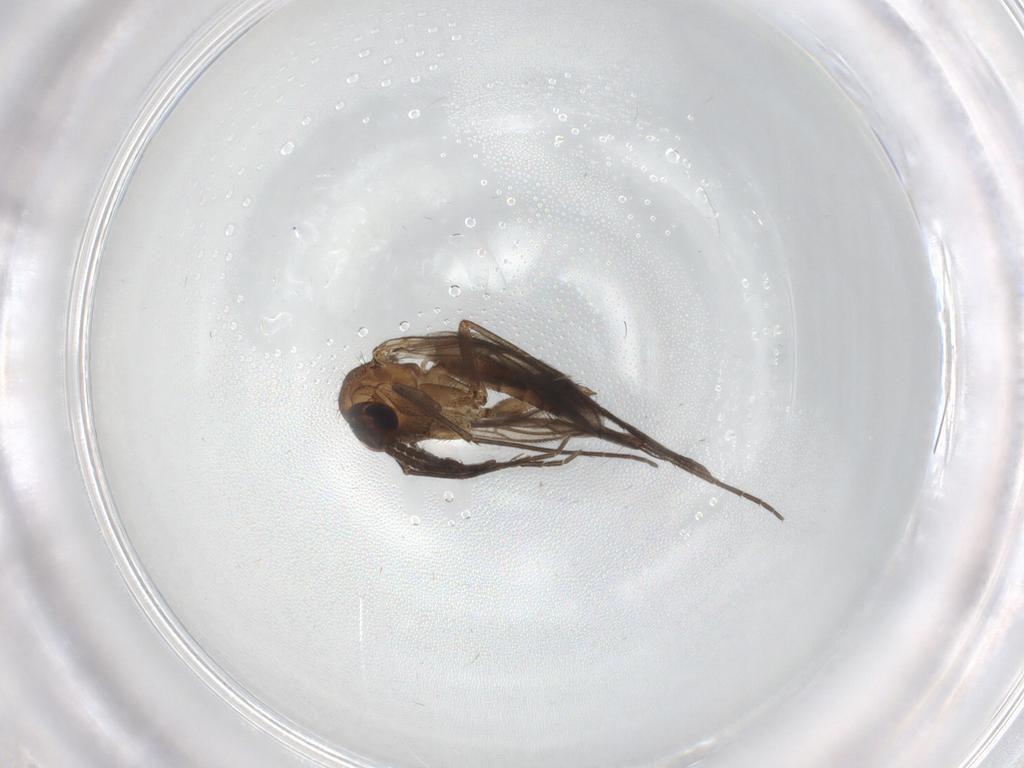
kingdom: Animalia
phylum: Arthropoda
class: Insecta
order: Diptera
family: Mycetophilidae
